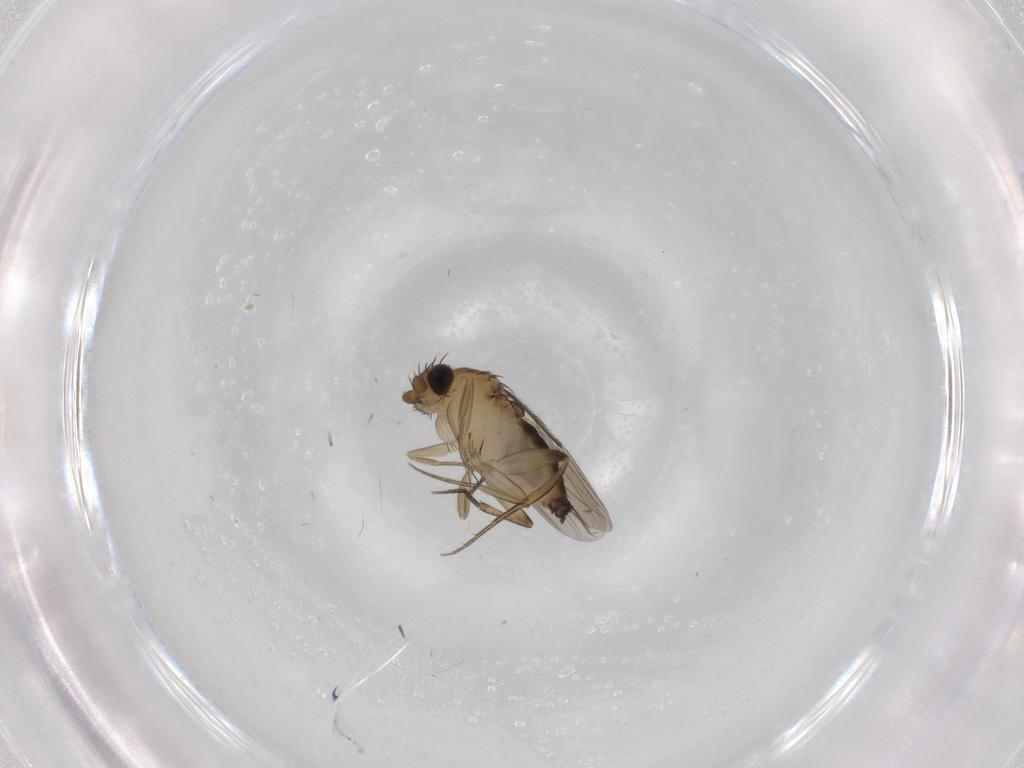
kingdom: Animalia
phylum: Arthropoda
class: Insecta
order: Diptera
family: Phoridae
